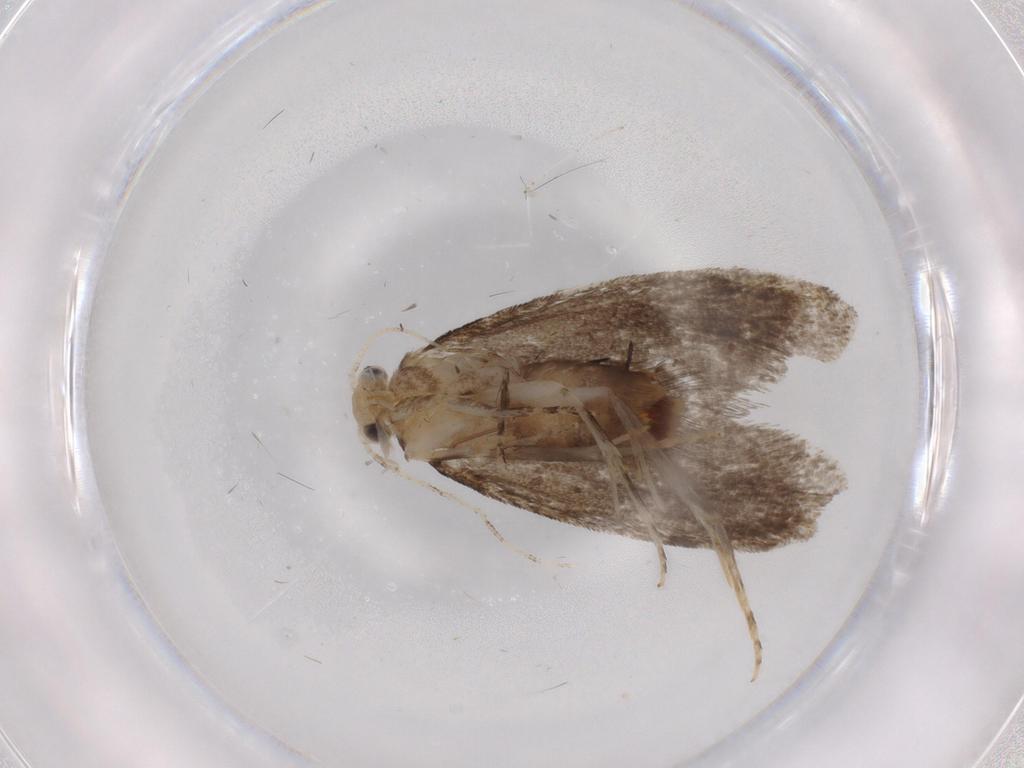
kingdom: Animalia
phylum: Arthropoda
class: Insecta
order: Lepidoptera
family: Tineidae
